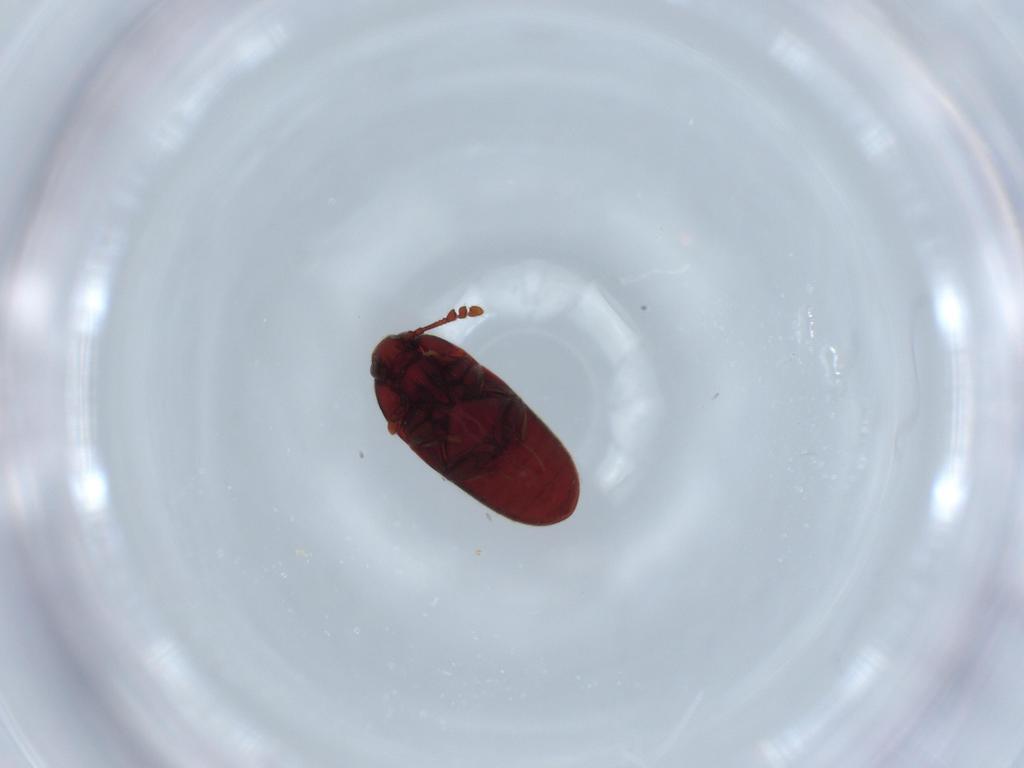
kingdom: Animalia
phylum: Arthropoda
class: Insecta
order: Coleoptera
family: Throscidae
